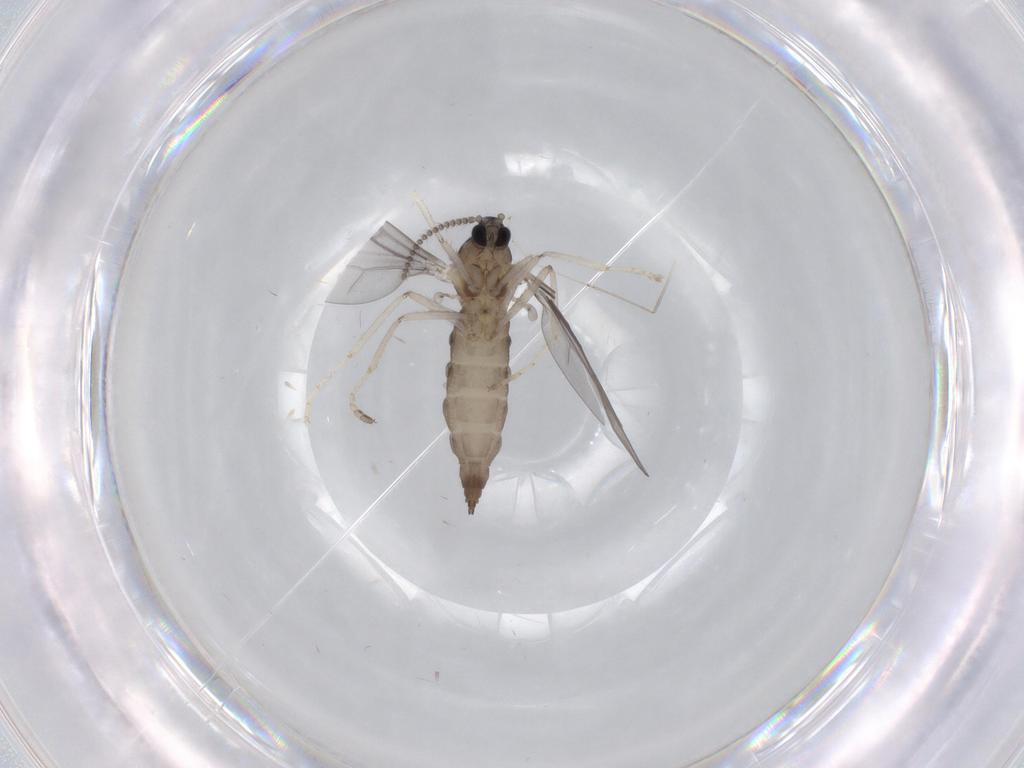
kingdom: Animalia
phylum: Arthropoda
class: Insecta
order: Diptera
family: Cecidomyiidae
